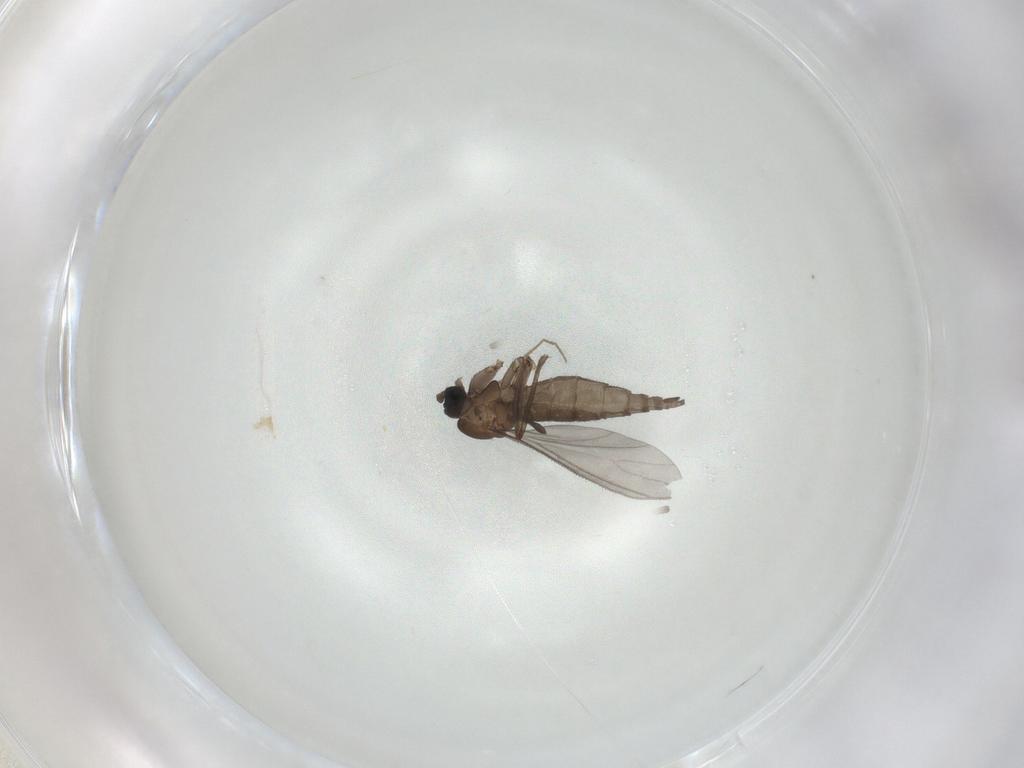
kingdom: Animalia
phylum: Arthropoda
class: Insecta
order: Diptera
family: Sciaridae
